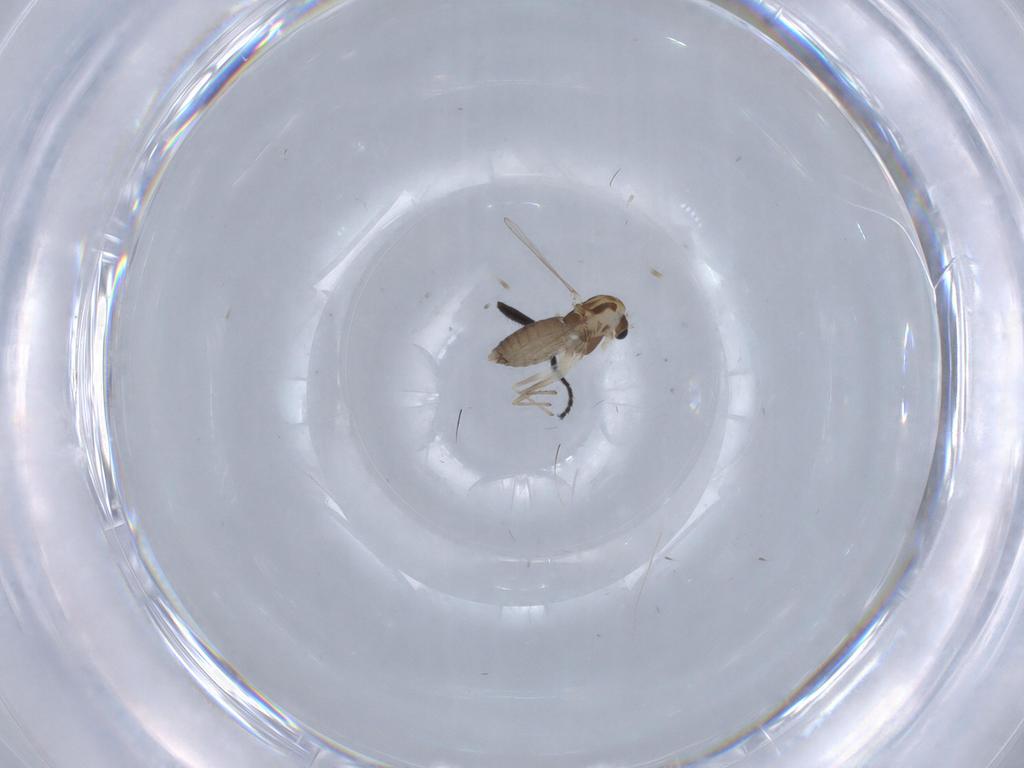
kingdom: Animalia
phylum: Arthropoda
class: Insecta
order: Diptera
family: Chironomidae
